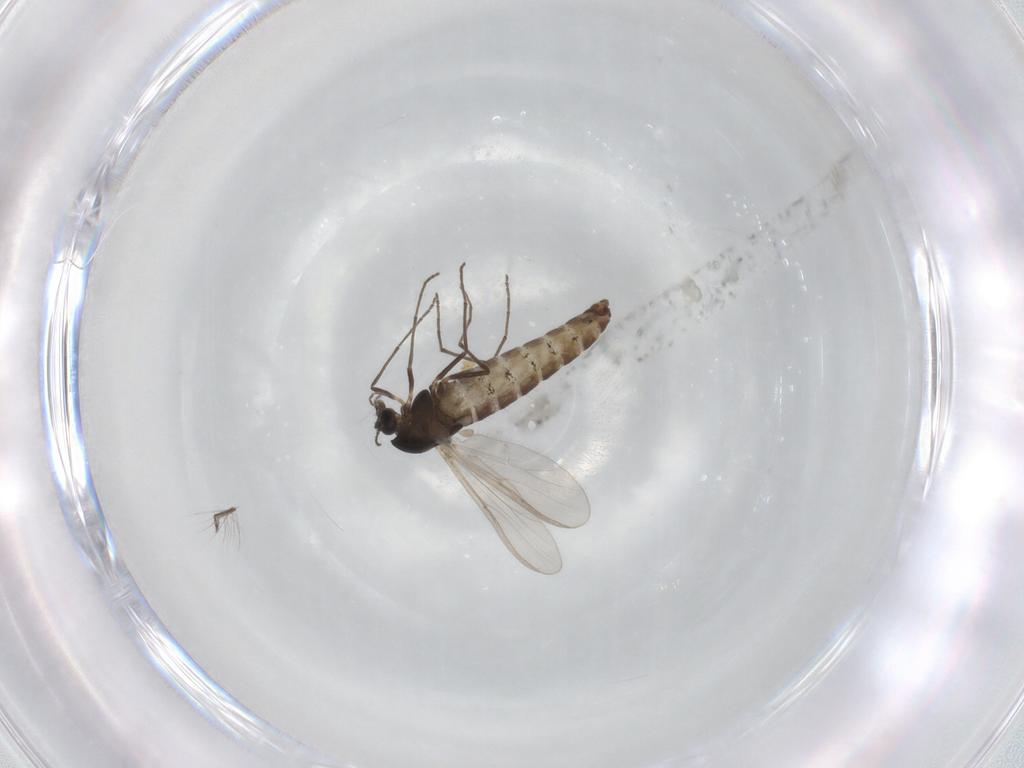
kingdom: Animalia
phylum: Arthropoda
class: Insecta
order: Diptera
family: Chironomidae
